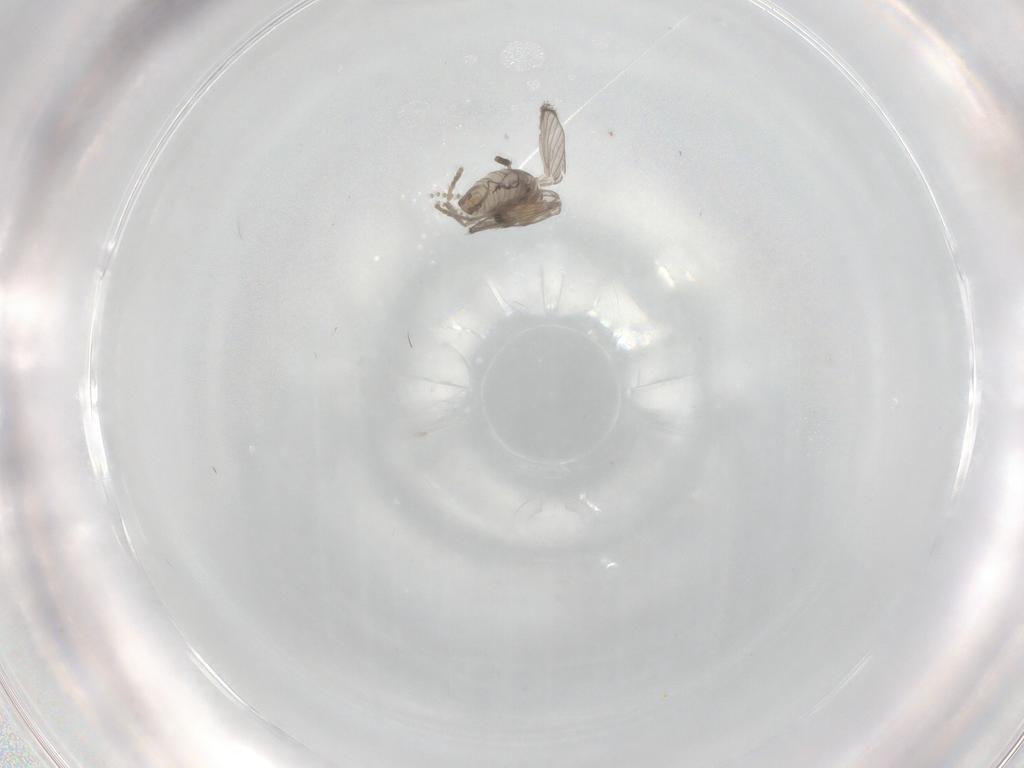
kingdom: Animalia
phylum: Arthropoda
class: Insecta
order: Diptera
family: Psychodidae
